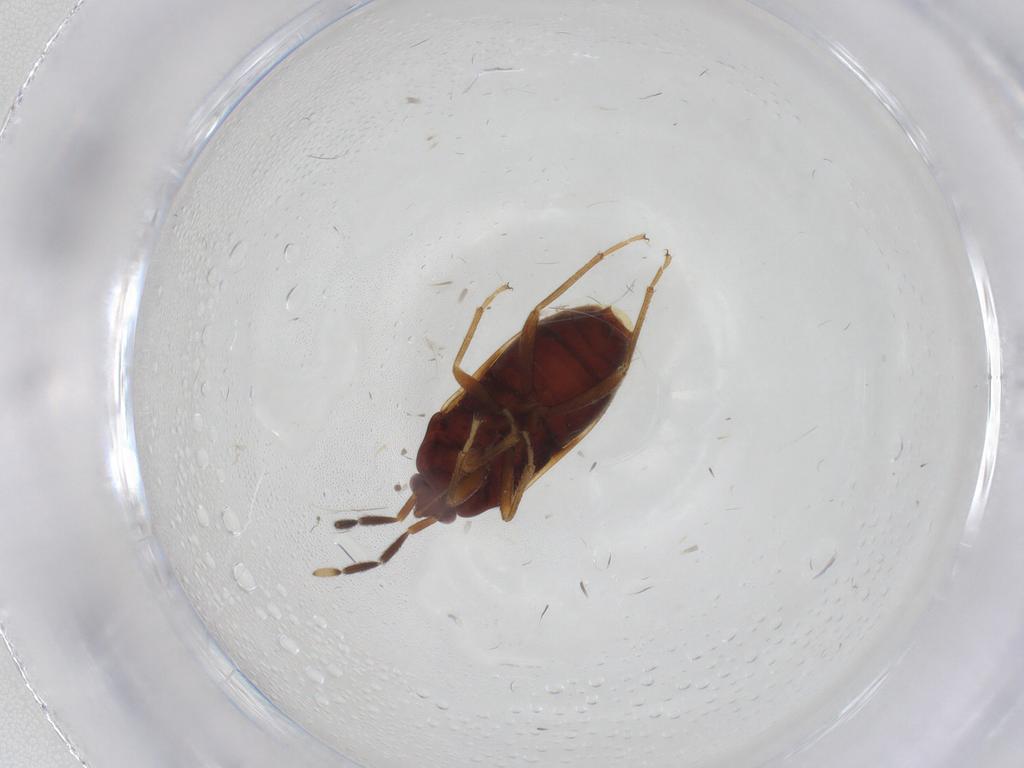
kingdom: Animalia
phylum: Arthropoda
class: Insecta
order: Hemiptera
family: Rhyparochromidae
